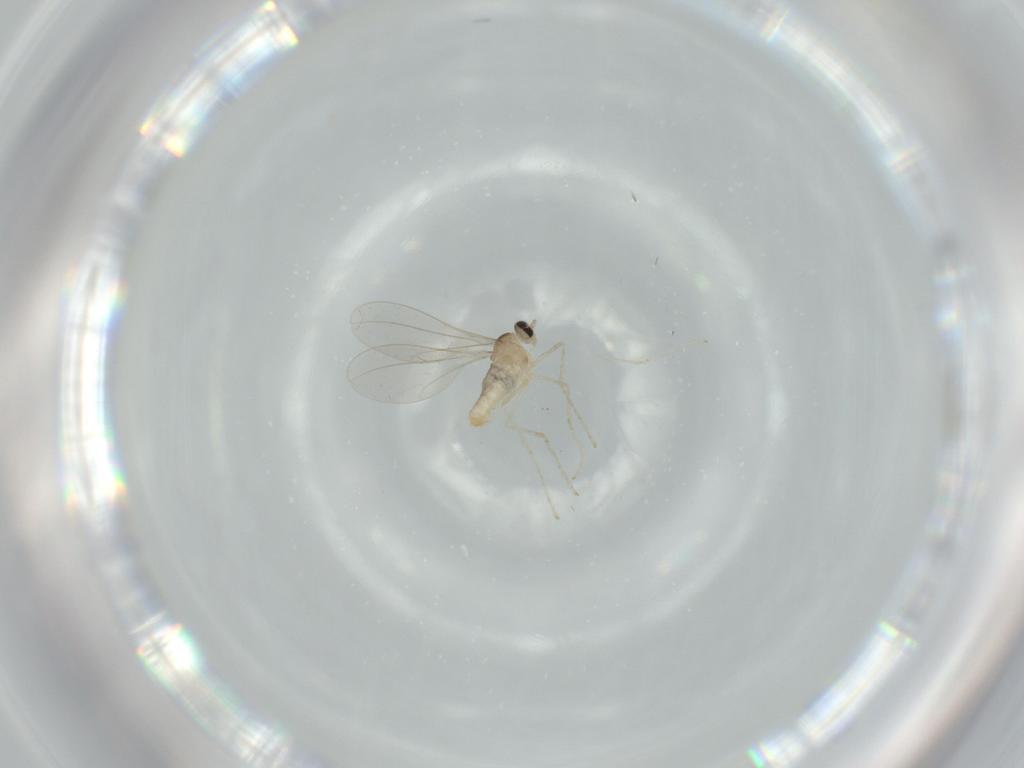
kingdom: Animalia
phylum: Arthropoda
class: Insecta
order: Diptera
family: Cecidomyiidae
